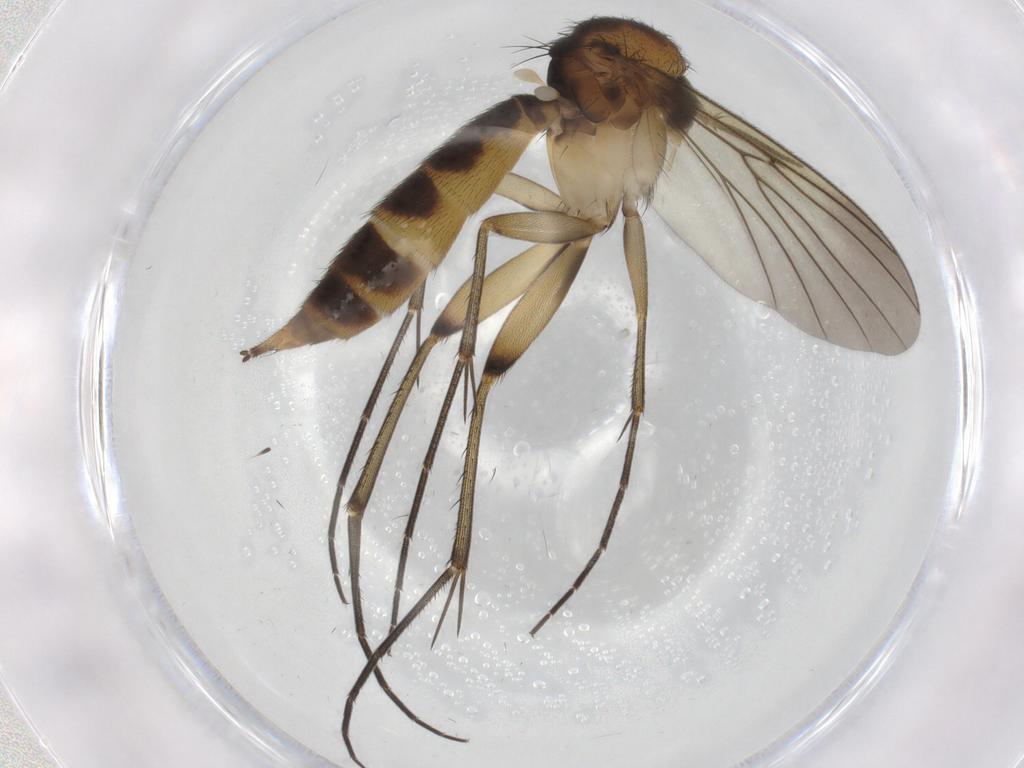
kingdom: Animalia
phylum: Arthropoda
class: Insecta
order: Diptera
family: Mycetophilidae
